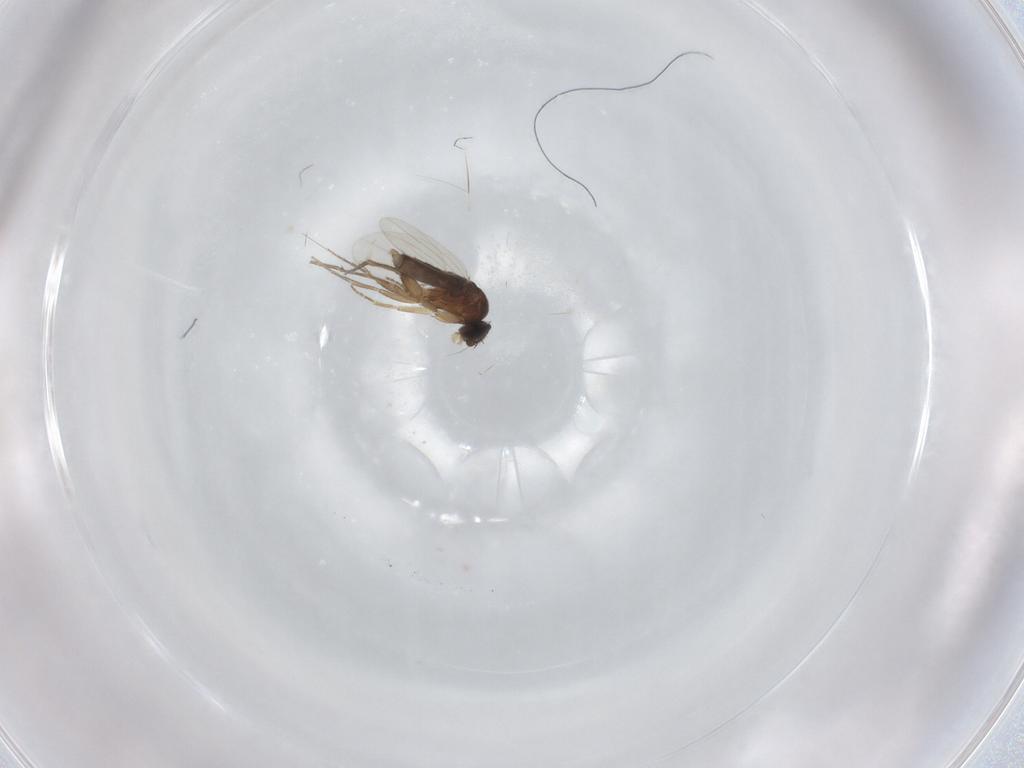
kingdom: Animalia
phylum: Arthropoda
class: Insecta
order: Diptera
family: Phoridae
